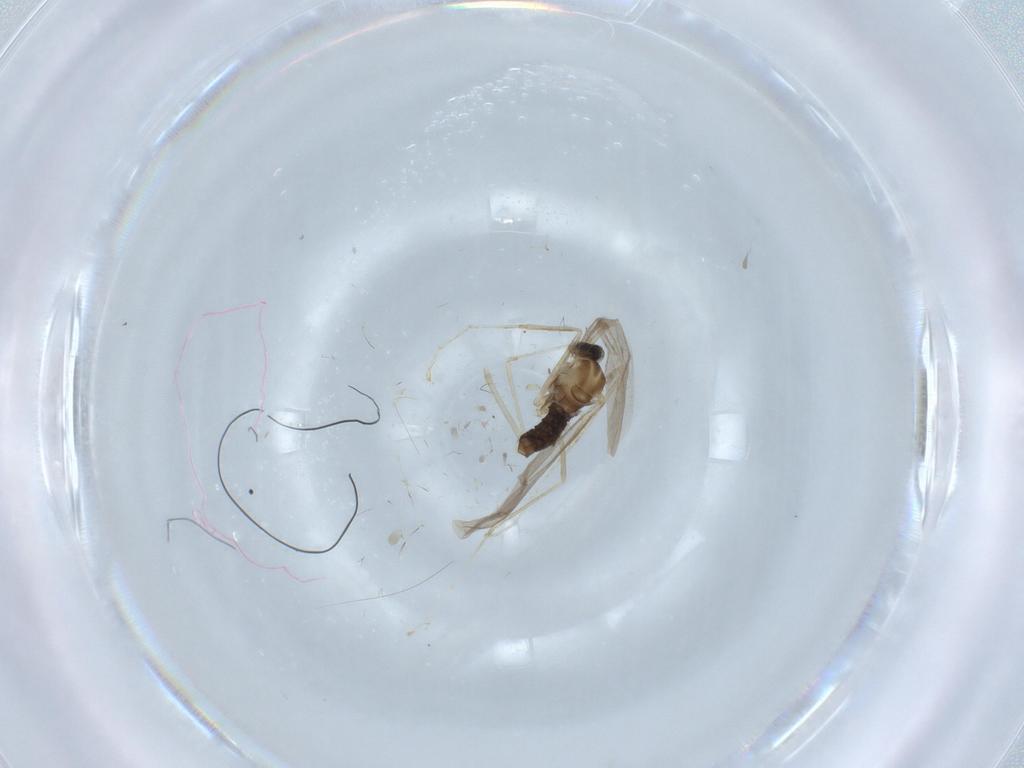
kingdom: Animalia
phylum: Arthropoda
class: Insecta
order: Diptera
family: Cecidomyiidae
